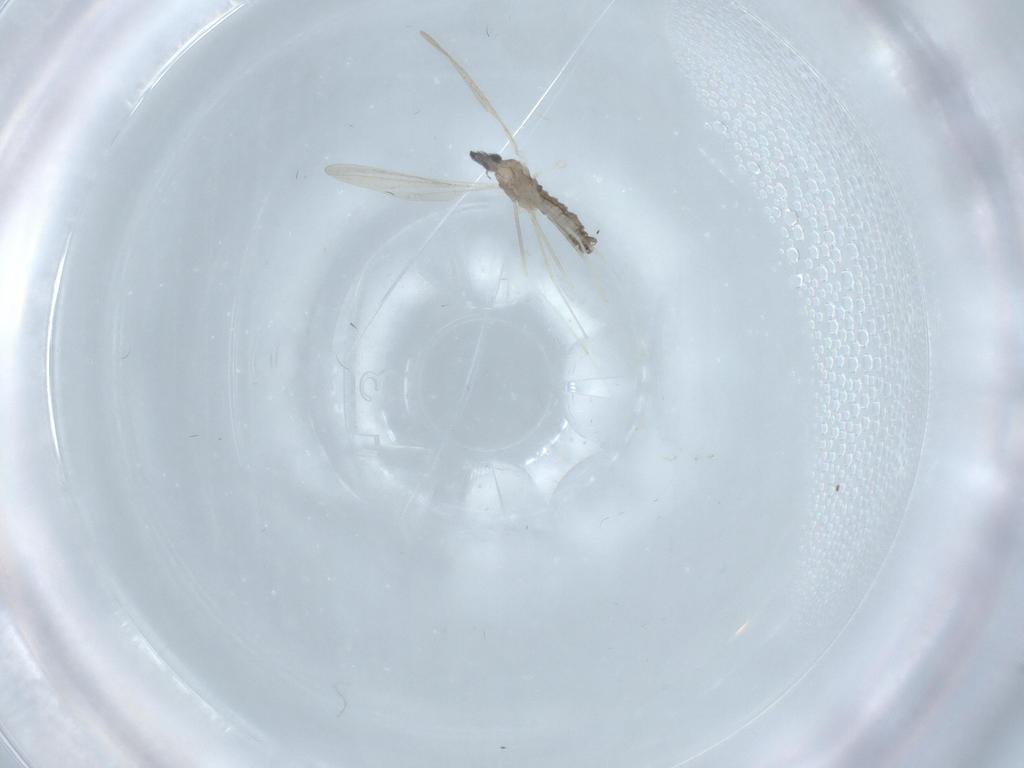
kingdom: Animalia
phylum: Arthropoda
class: Insecta
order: Diptera
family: Cecidomyiidae
